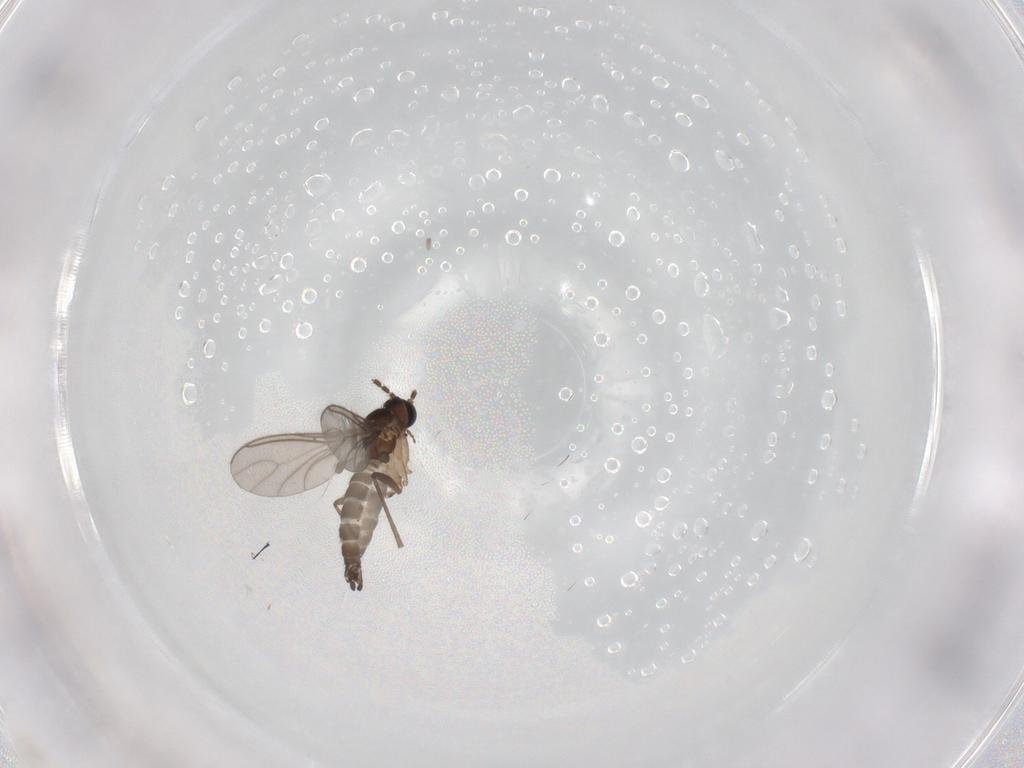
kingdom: Animalia
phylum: Arthropoda
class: Insecta
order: Diptera
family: Sciaridae
